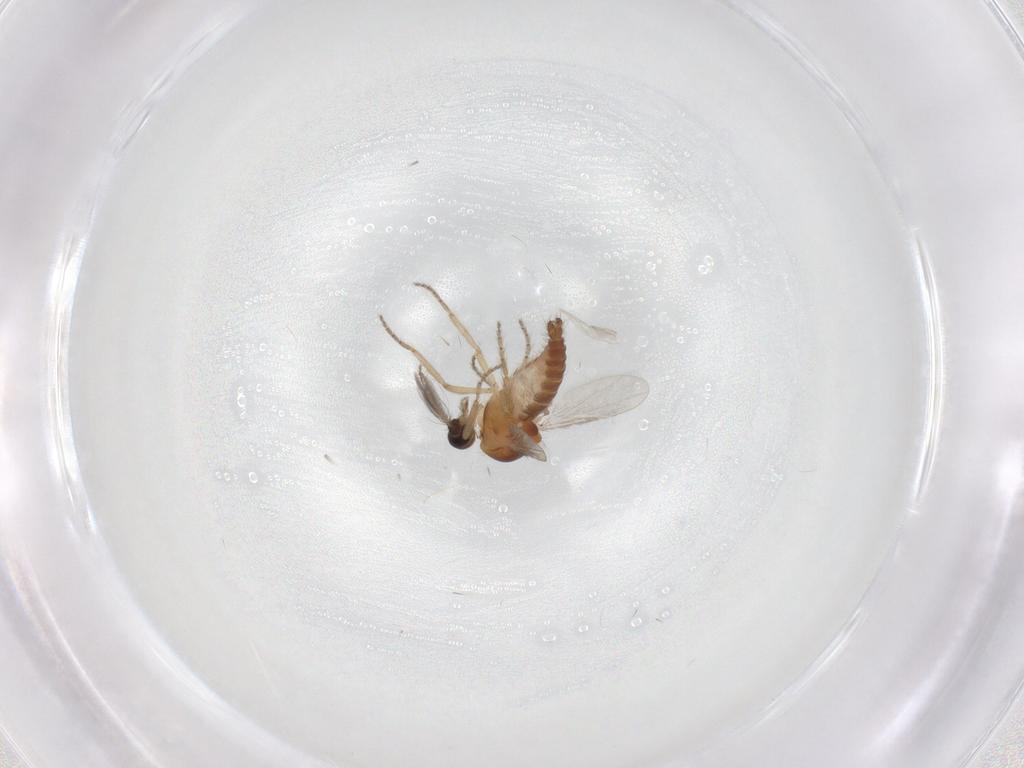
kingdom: Animalia
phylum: Arthropoda
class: Insecta
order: Diptera
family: Ceratopogonidae
